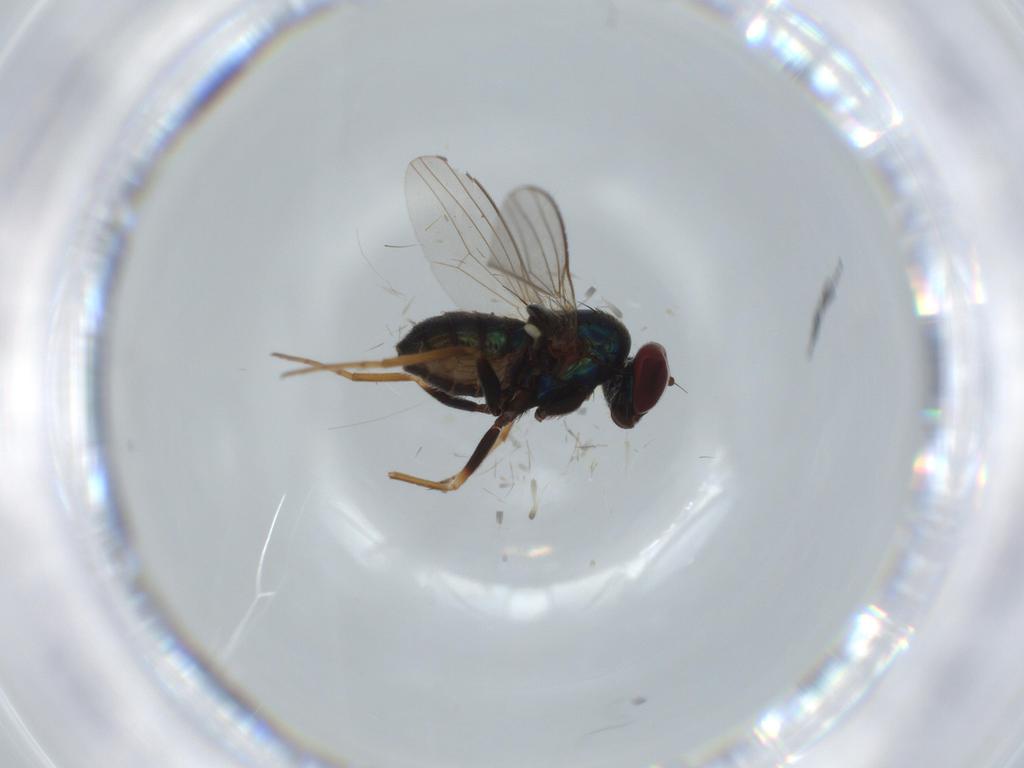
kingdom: Animalia
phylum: Arthropoda
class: Insecta
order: Diptera
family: Dolichopodidae
